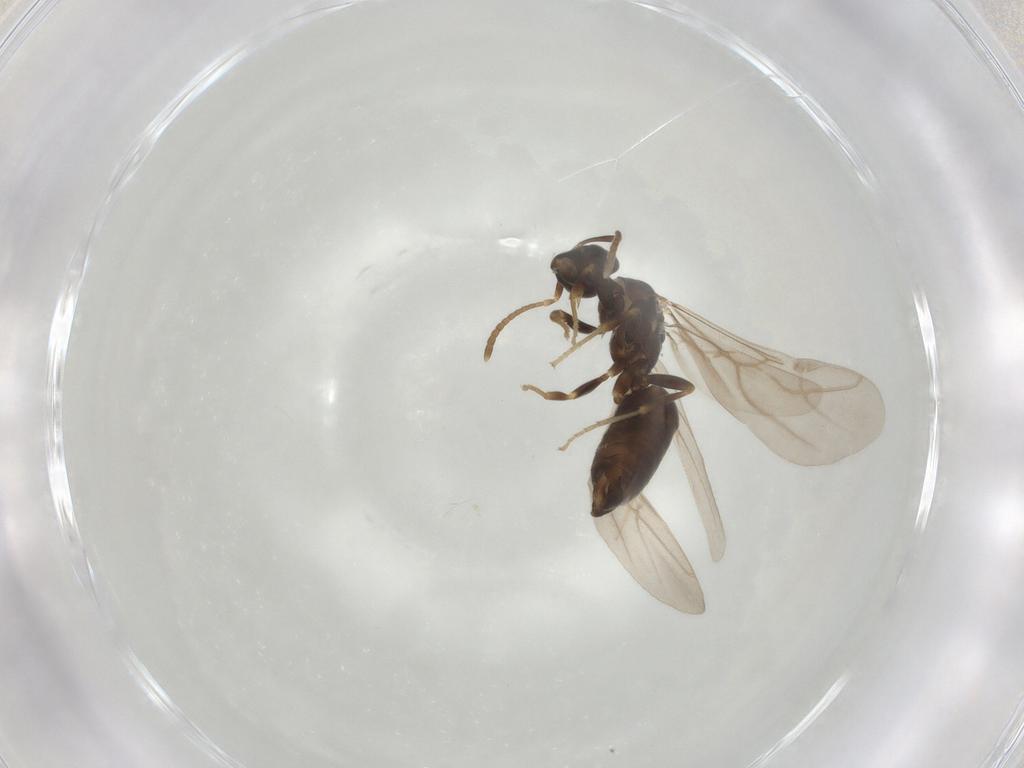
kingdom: Animalia
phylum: Arthropoda
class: Insecta
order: Hymenoptera
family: Formicidae
